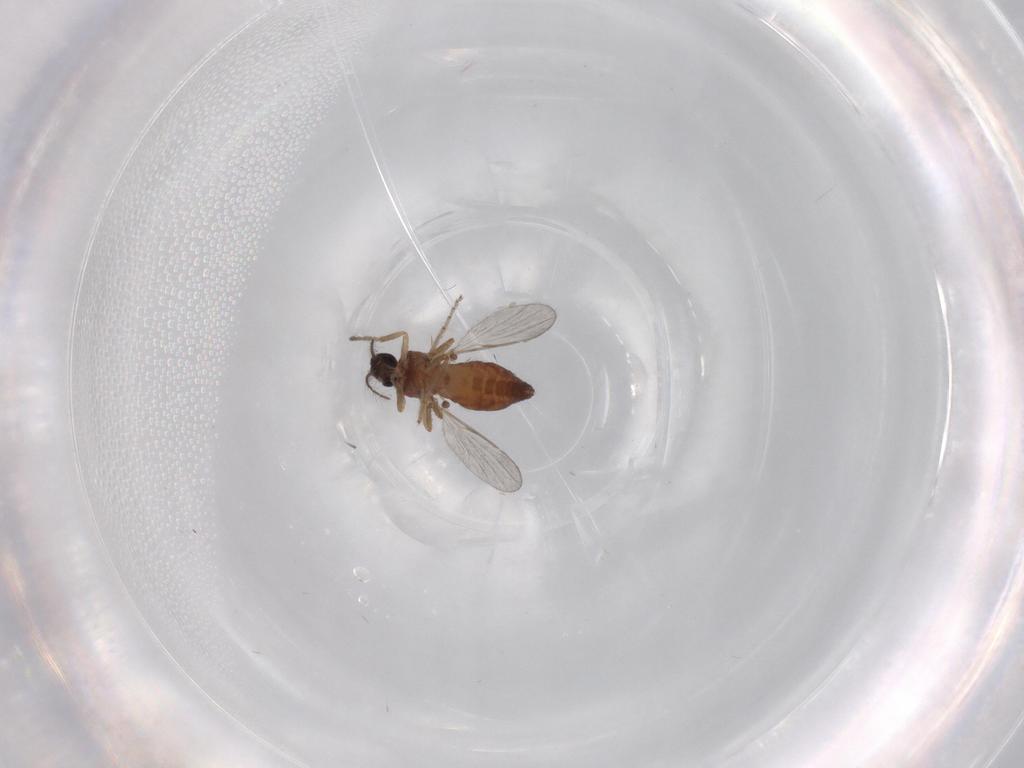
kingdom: Animalia
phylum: Arthropoda
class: Insecta
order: Diptera
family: Ceratopogonidae
